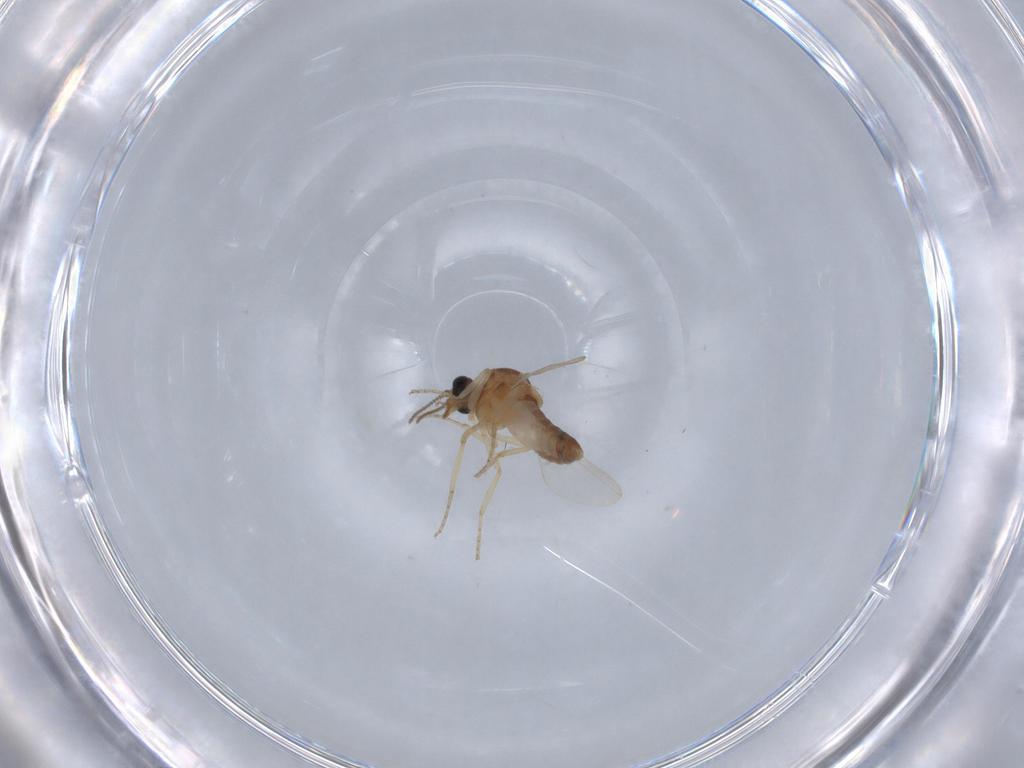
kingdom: Animalia
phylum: Arthropoda
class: Insecta
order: Diptera
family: Ceratopogonidae
